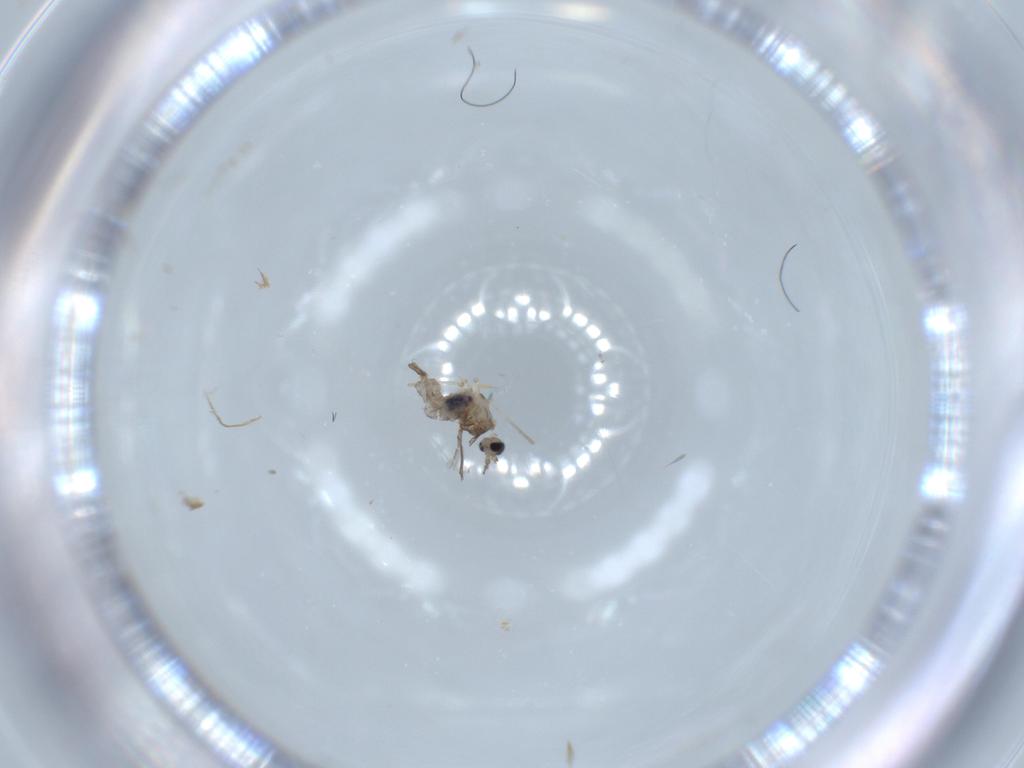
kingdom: Animalia
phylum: Arthropoda
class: Insecta
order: Diptera
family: Cecidomyiidae
